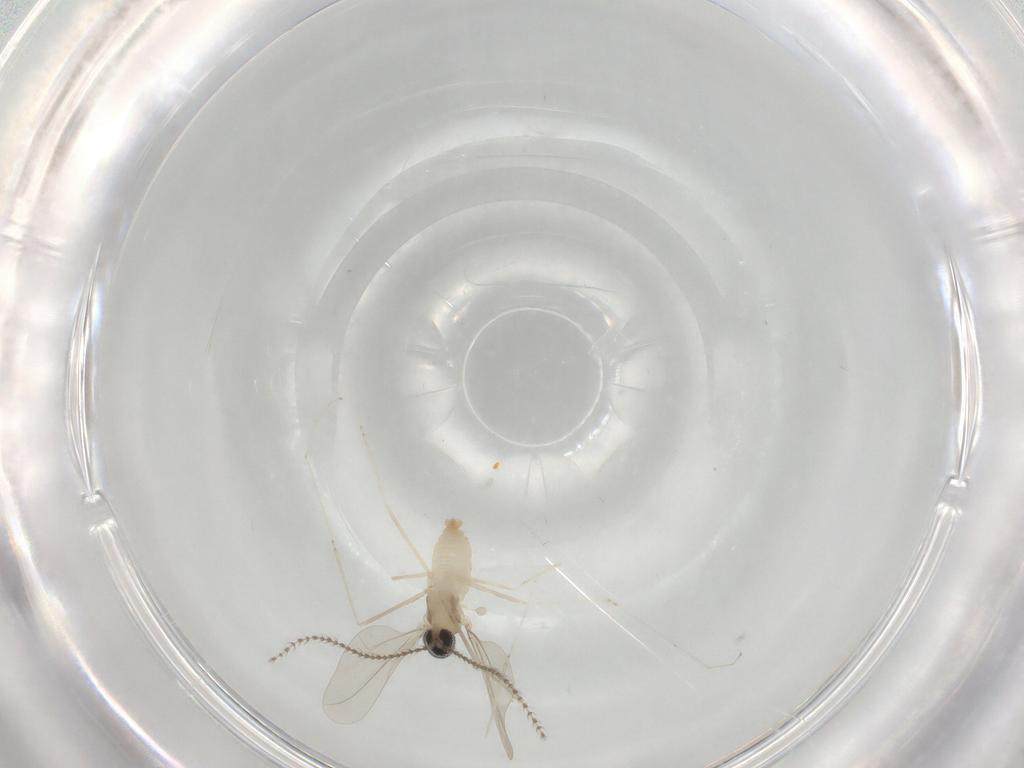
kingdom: Animalia
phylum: Arthropoda
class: Insecta
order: Diptera
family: Cecidomyiidae
